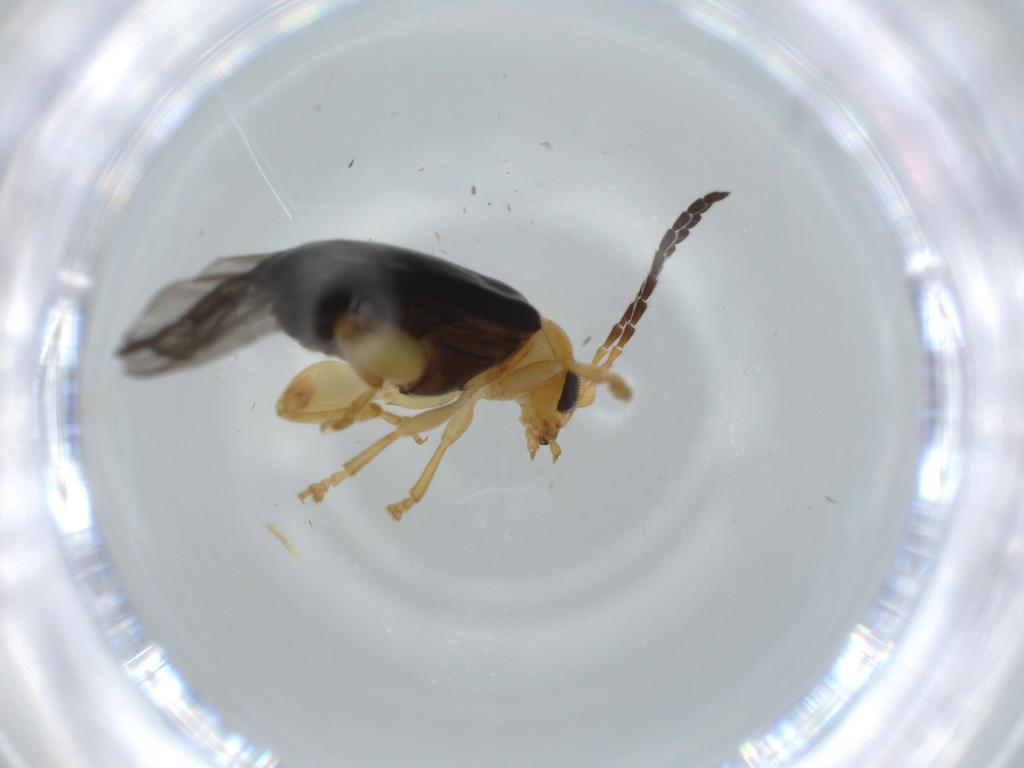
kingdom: Animalia
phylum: Arthropoda
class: Insecta
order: Coleoptera
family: Chrysomelidae
